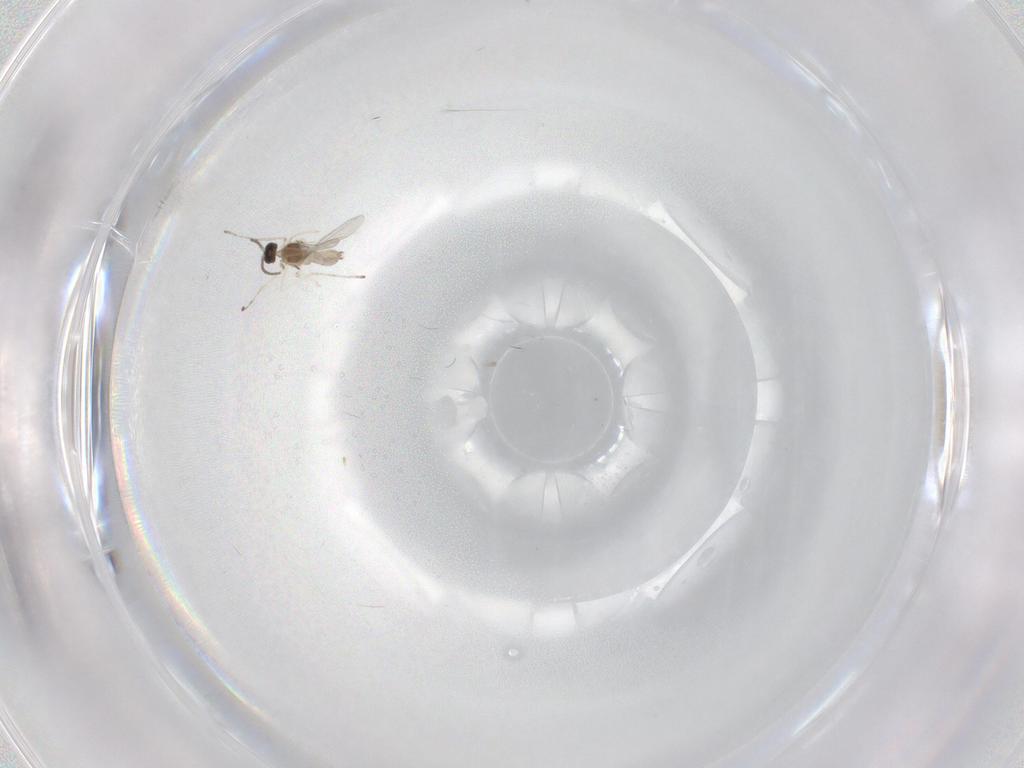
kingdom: Animalia
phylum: Arthropoda
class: Insecta
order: Diptera
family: Cecidomyiidae
